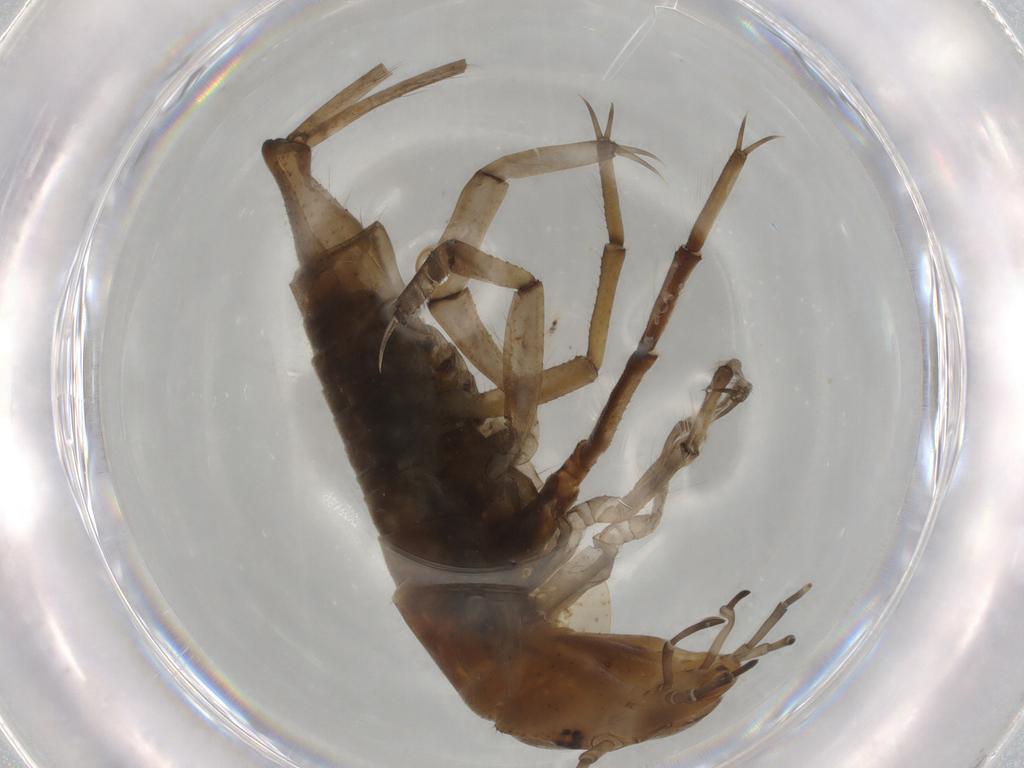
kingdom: Animalia
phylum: Arthropoda
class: Insecta
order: Coleoptera
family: Dytiscidae
